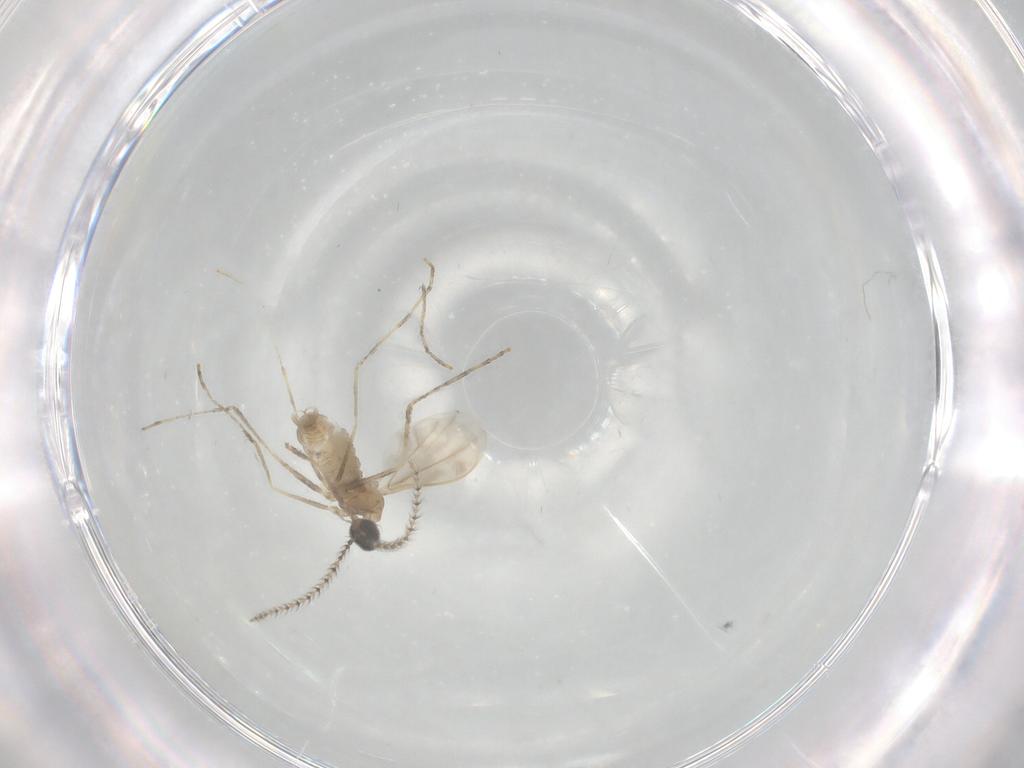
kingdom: Animalia
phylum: Arthropoda
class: Insecta
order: Diptera
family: Cecidomyiidae
